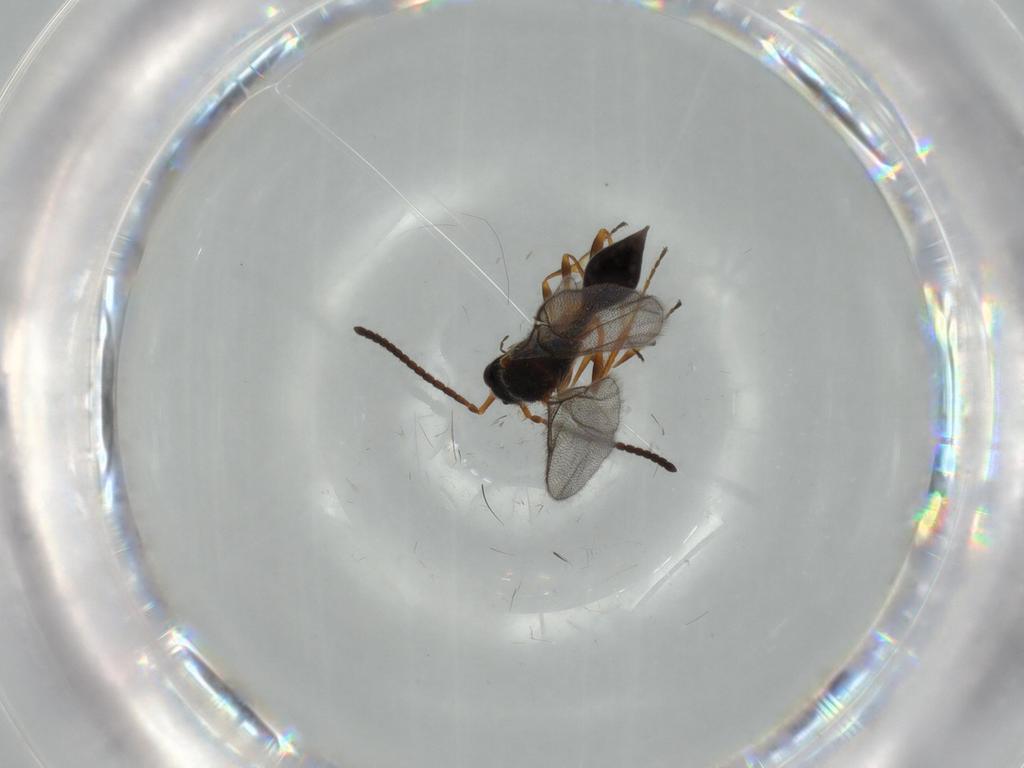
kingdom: Animalia
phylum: Arthropoda
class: Insecta
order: Hymenoptera
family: Diapriidae
